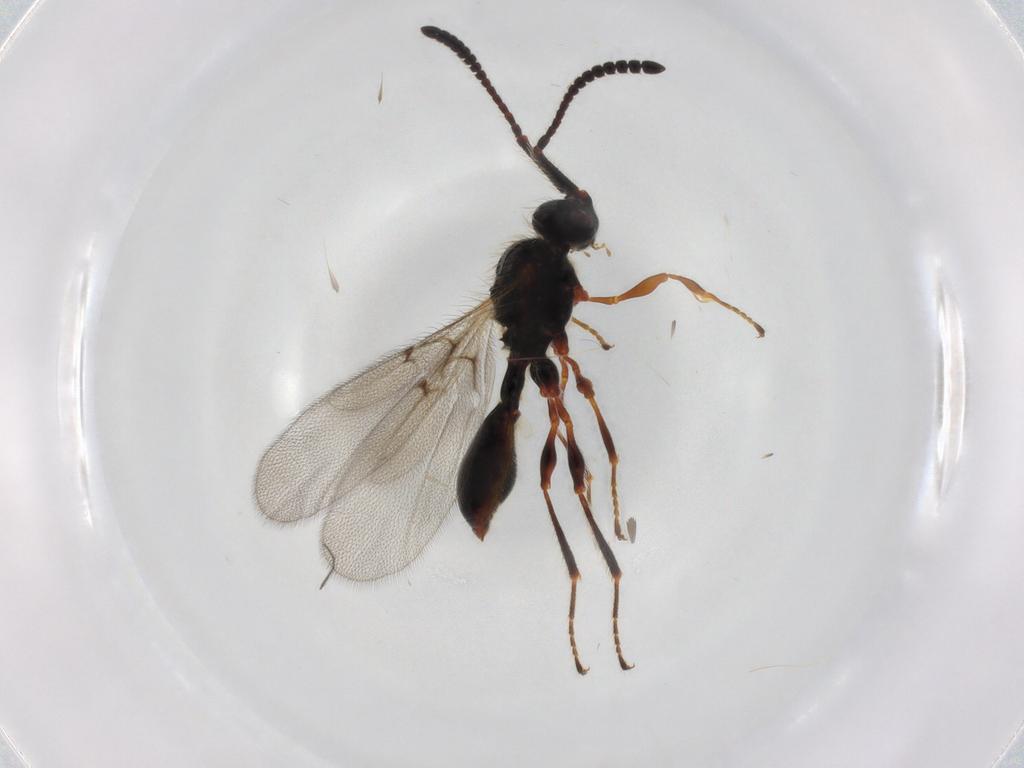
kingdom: Animalia
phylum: Arthropoda
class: Insecta
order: Hymenoptera
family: Diapriidae
